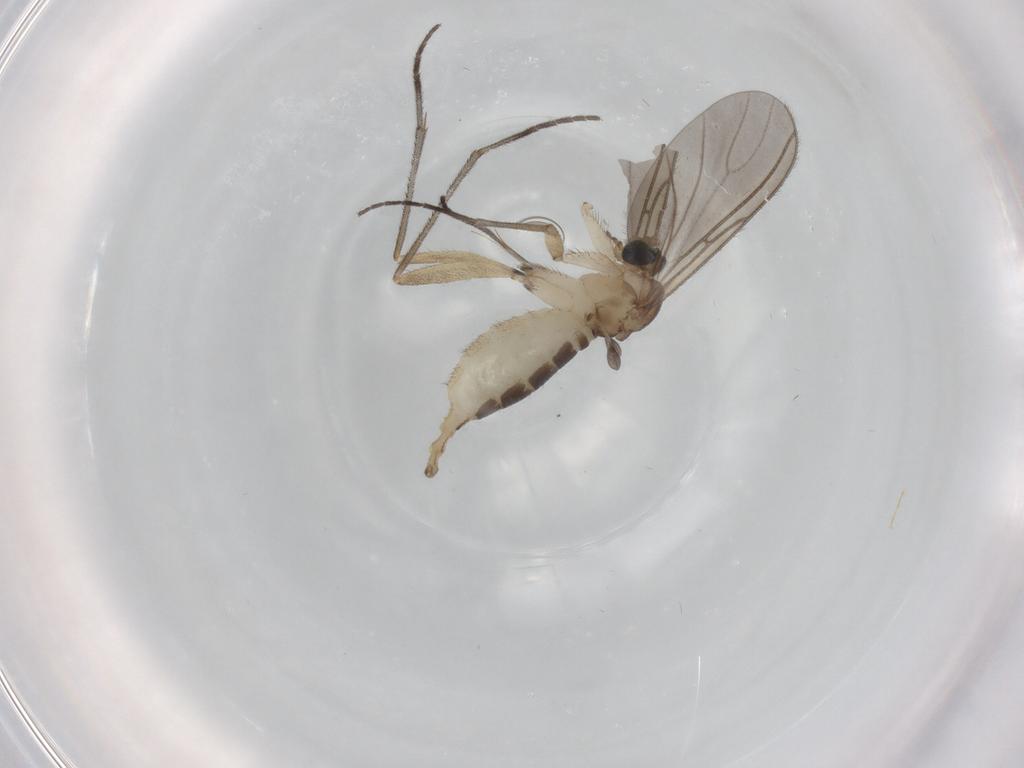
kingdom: Animalia
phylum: Arthropoda
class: Insecta
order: Diptera
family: Sciaridae
